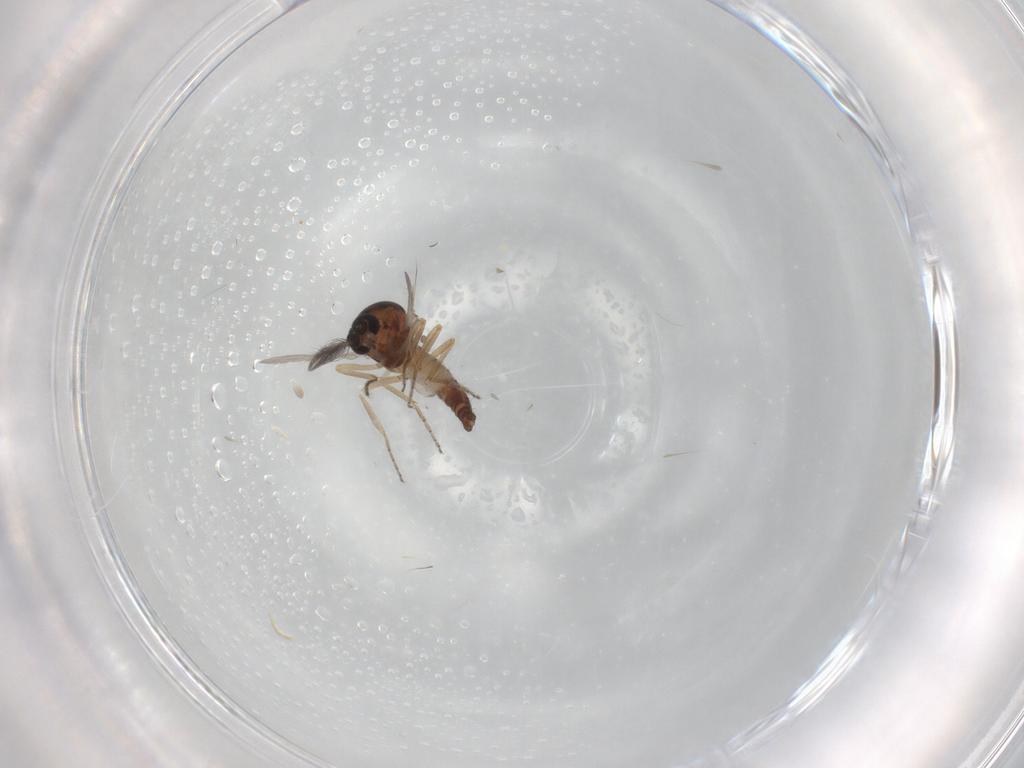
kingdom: Animalia
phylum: Arthropoda
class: Insecta
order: Diptera
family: Ceratopogonidae
